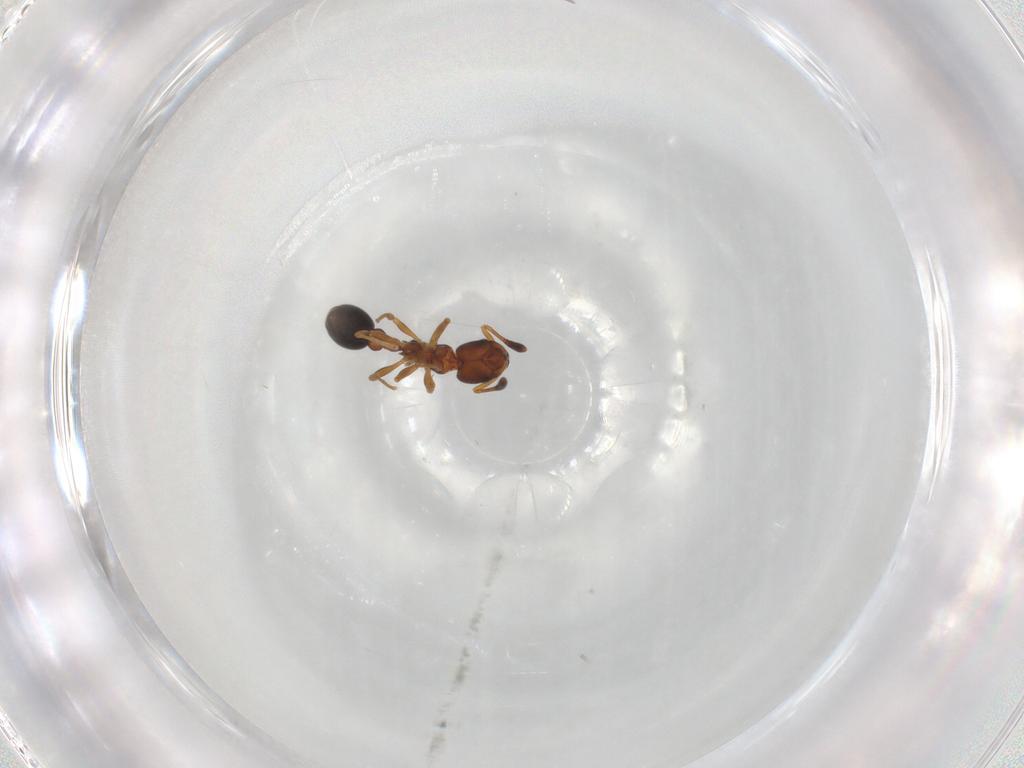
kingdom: Animalia
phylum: Arthropoda
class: Insecta
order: Hymenoptera
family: Formicidae
